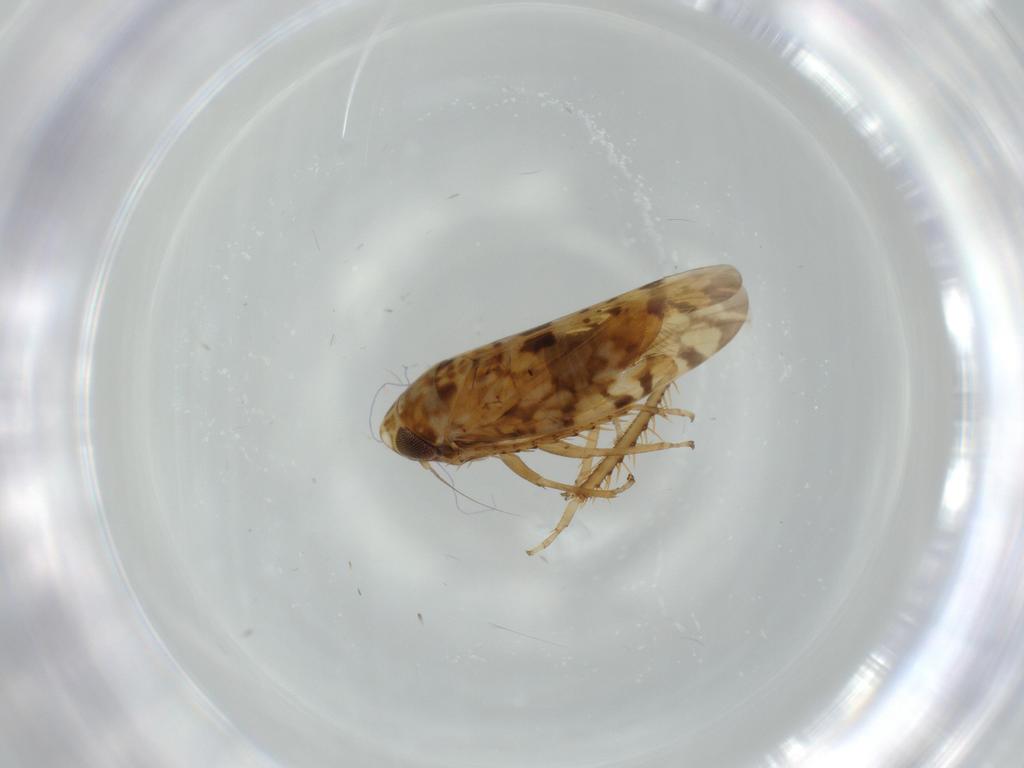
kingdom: Animalia
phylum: Arthropoda
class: Insecta
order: Hemiptera
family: Cicadellidae
